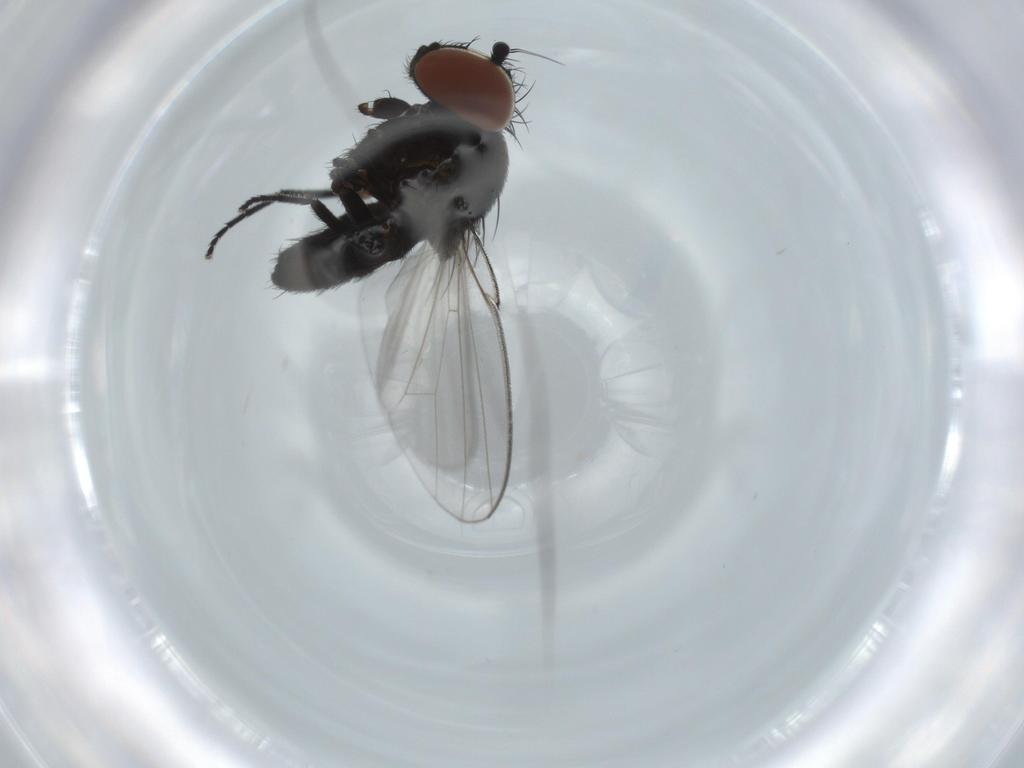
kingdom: Animalia
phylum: Arthropoda
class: Insecta
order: Diptera
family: Milichiidae
